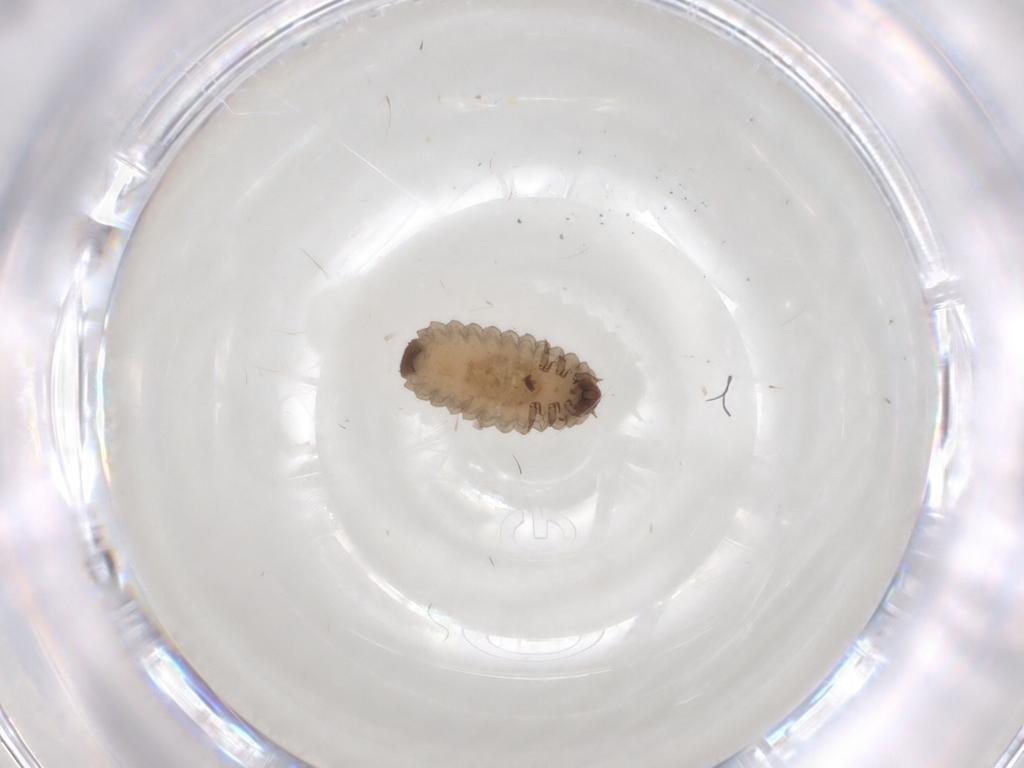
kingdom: Animalia
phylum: Arthropoda
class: Insecta
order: Coleoptera
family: Corylophidae
